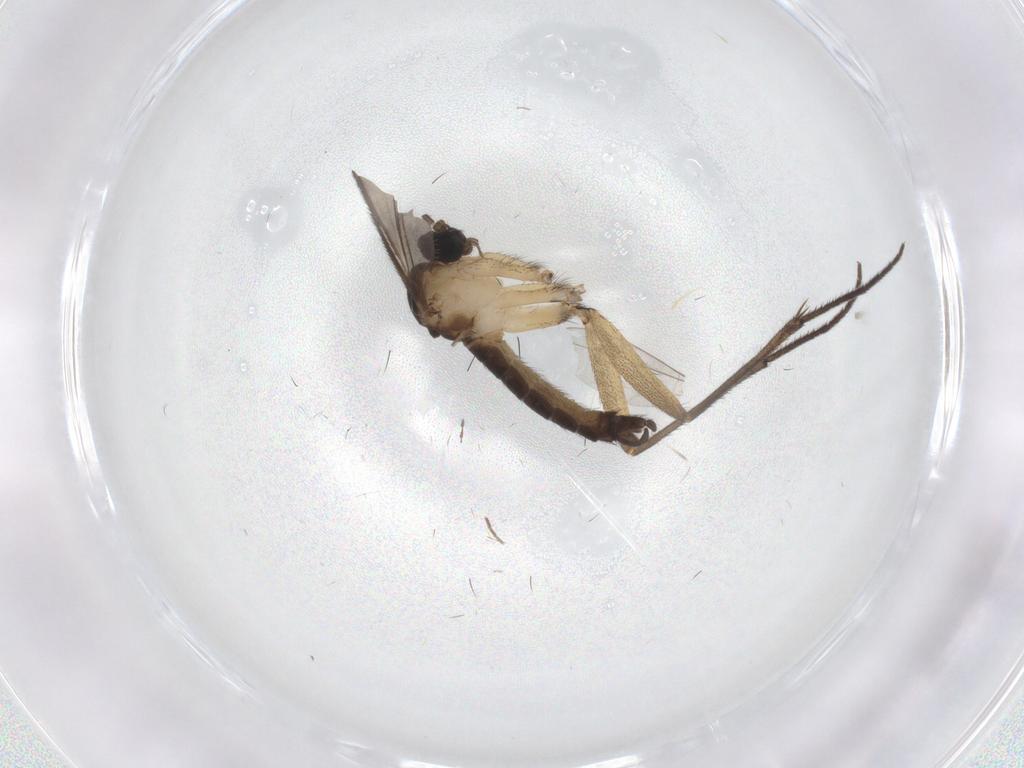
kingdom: Animalia
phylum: Arthropoda
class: Insecta
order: Diptera
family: Sciaridae
